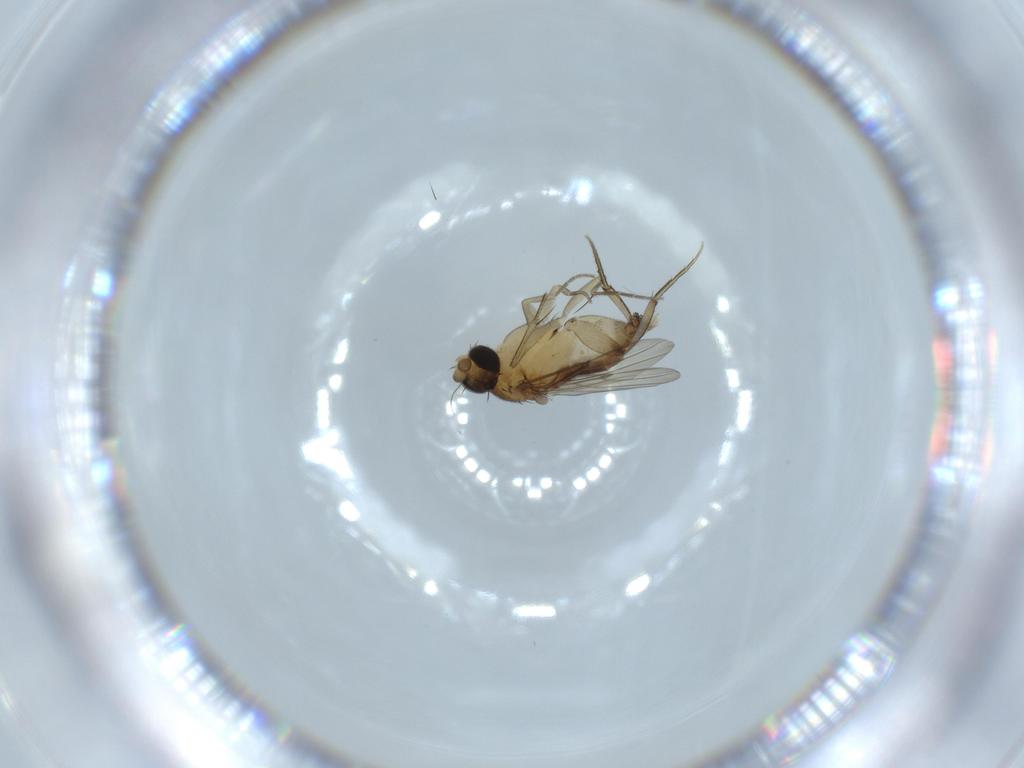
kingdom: Animalia
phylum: Arthropoda
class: Insecta
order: Diptera
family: Phoridae
